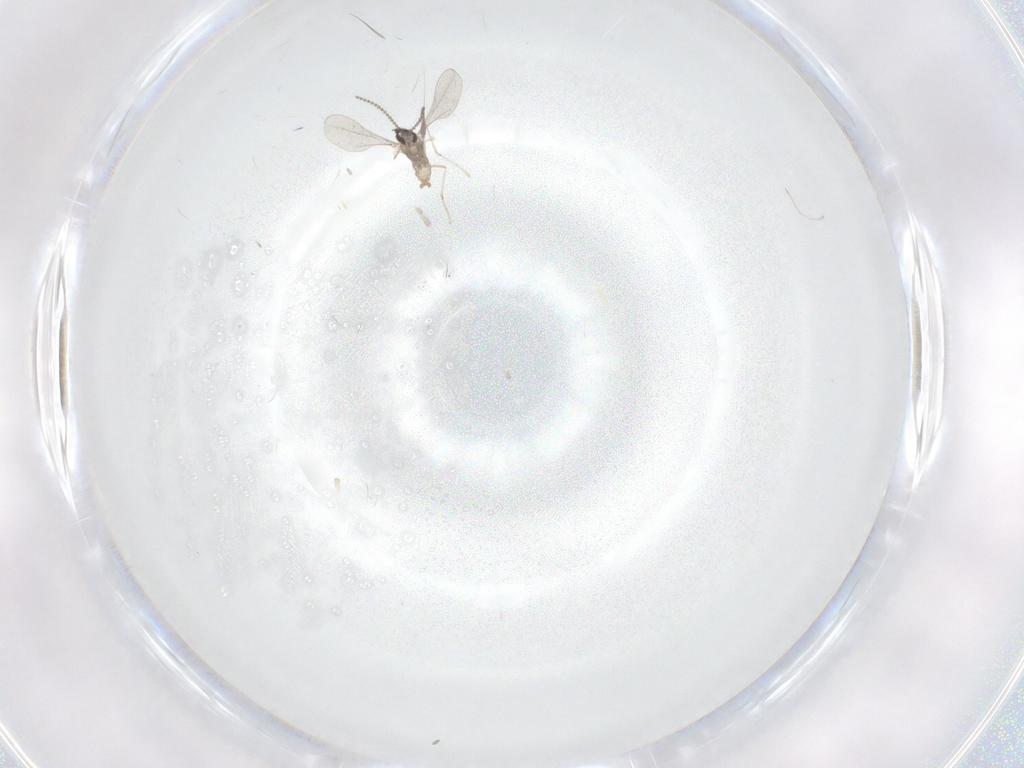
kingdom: Animalia
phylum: Arthropoda
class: Insecta
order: Diptera
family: Cecidomyiidae
